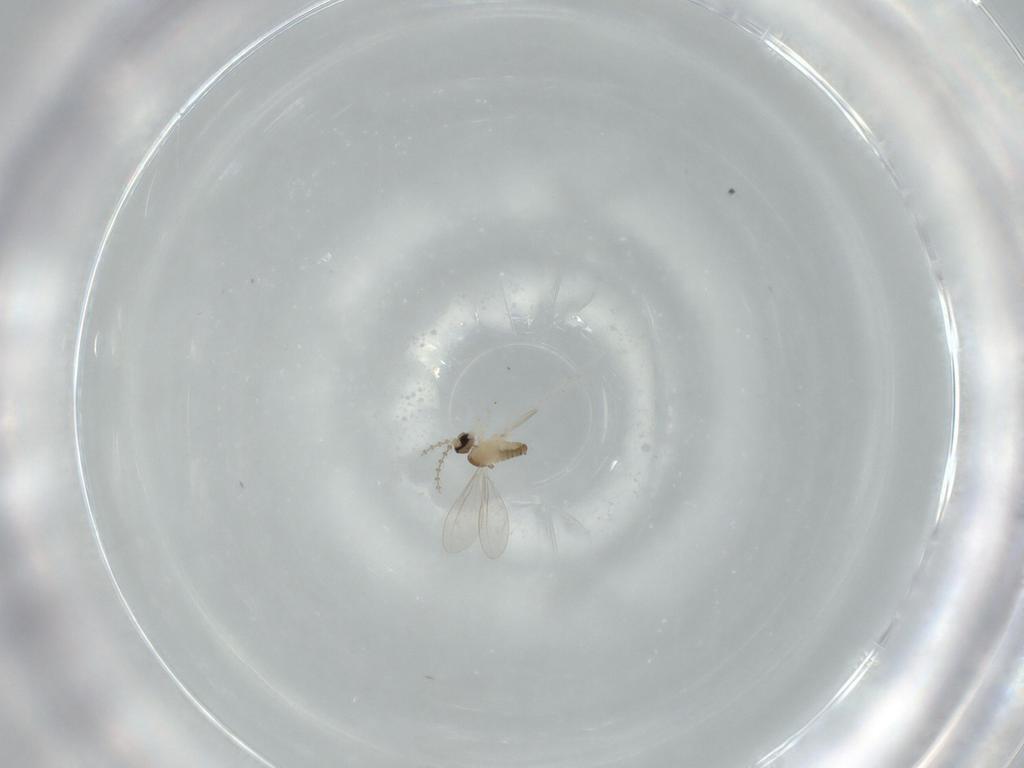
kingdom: Animalia
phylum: Arthropoda
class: Insecta
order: Diptera
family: Cecidomyiidae
